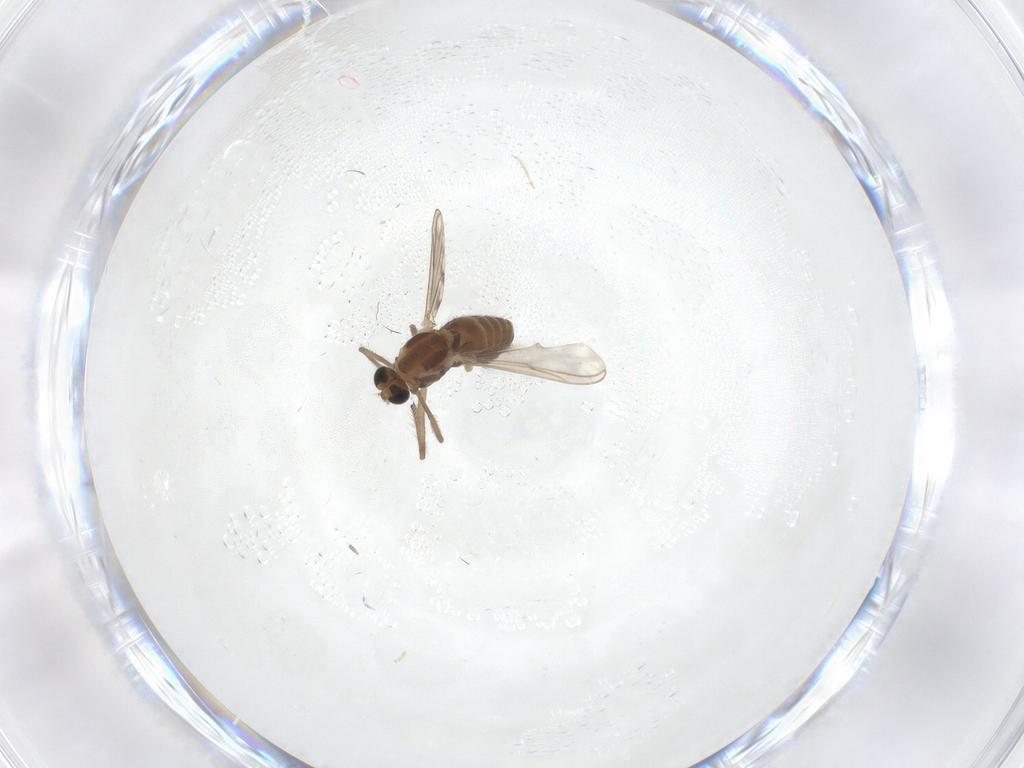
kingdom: Animalia
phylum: Arthropoda
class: Insecta
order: Diptera
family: Chironomidae
